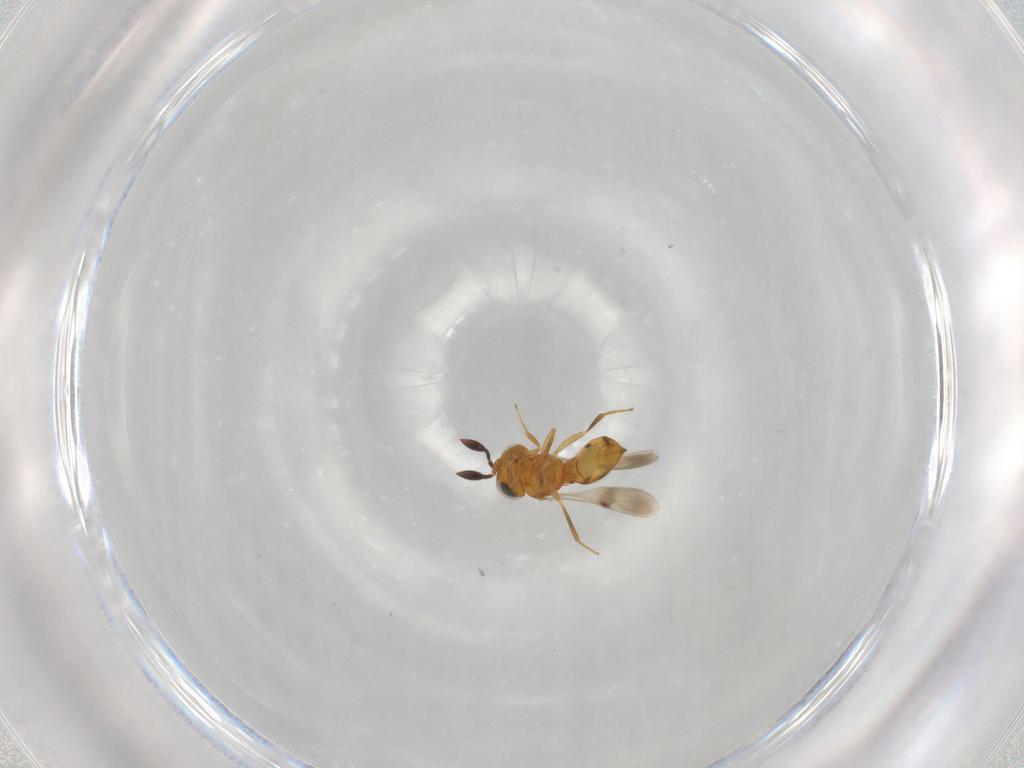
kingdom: Animalia
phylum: Arthropoda
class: Insecta
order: Hymenoptera
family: Scelionidae
